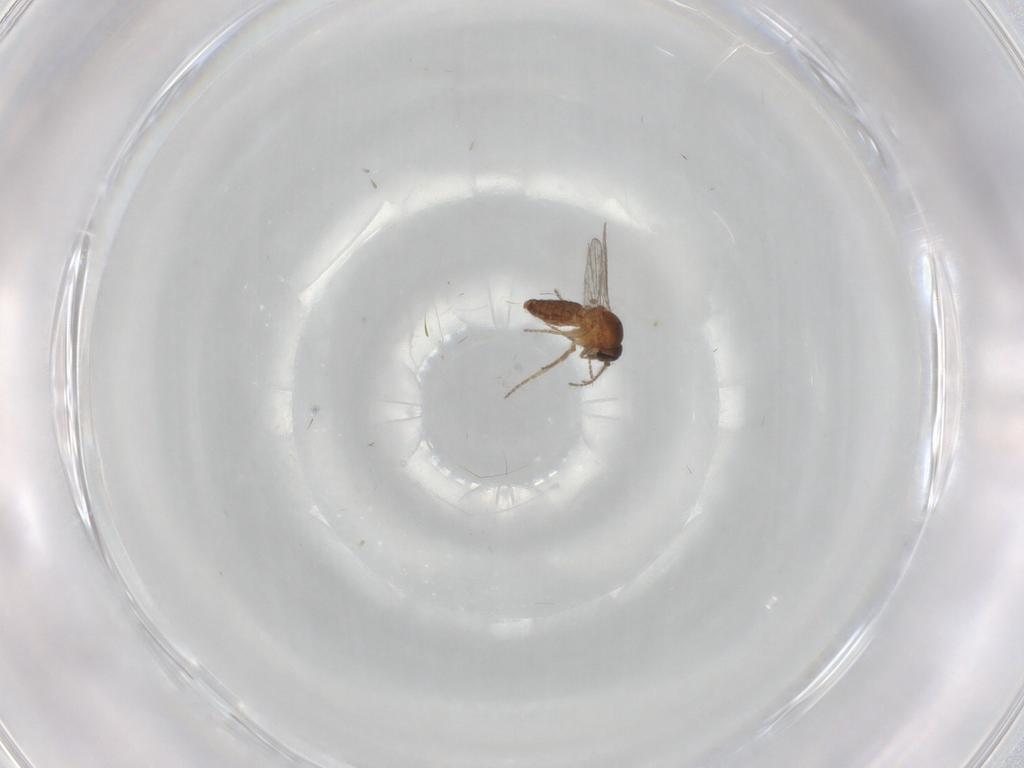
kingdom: Animalia
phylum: Arthropoda
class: Insecta
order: Diptera
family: Ceratopogonidae
